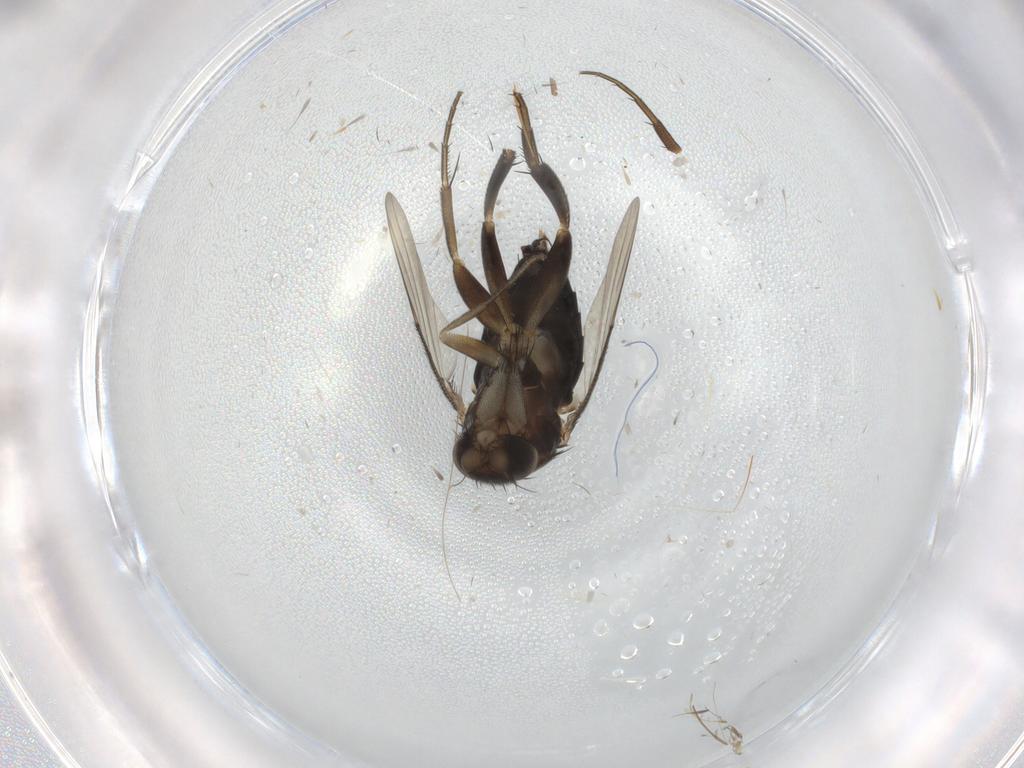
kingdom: Animalia
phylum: Arthropoda
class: Insecta
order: Diptera
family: Phoridae
